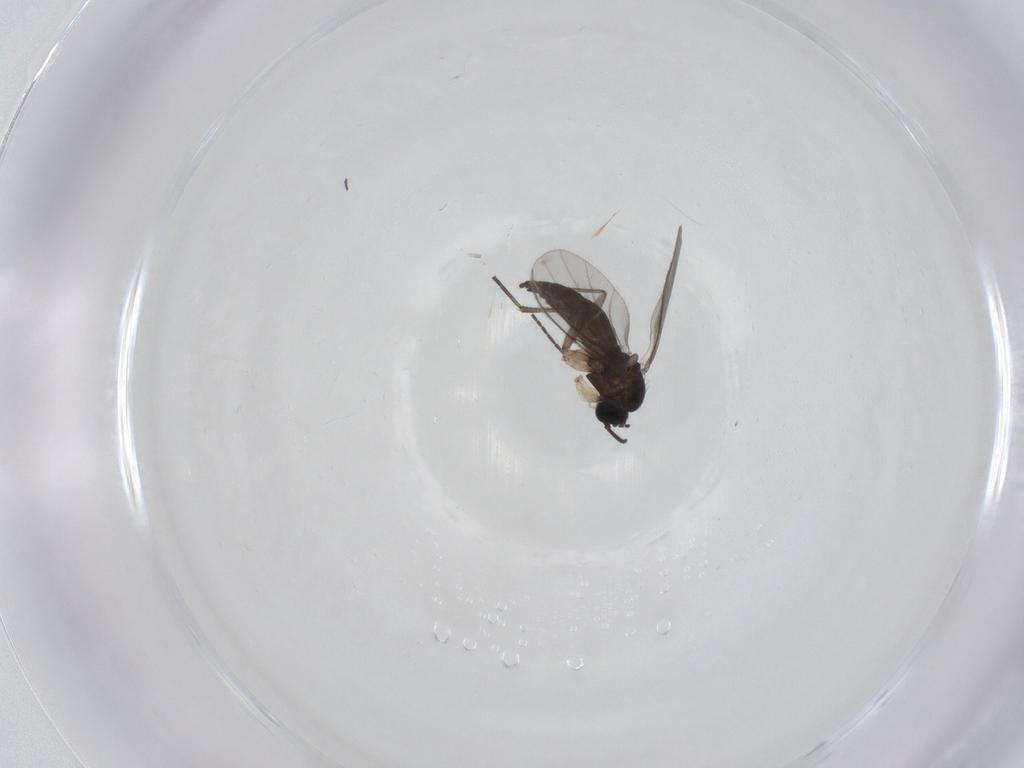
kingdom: Animalia
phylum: Arthropoda
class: Insecta
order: Diptera
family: Sciaridae
